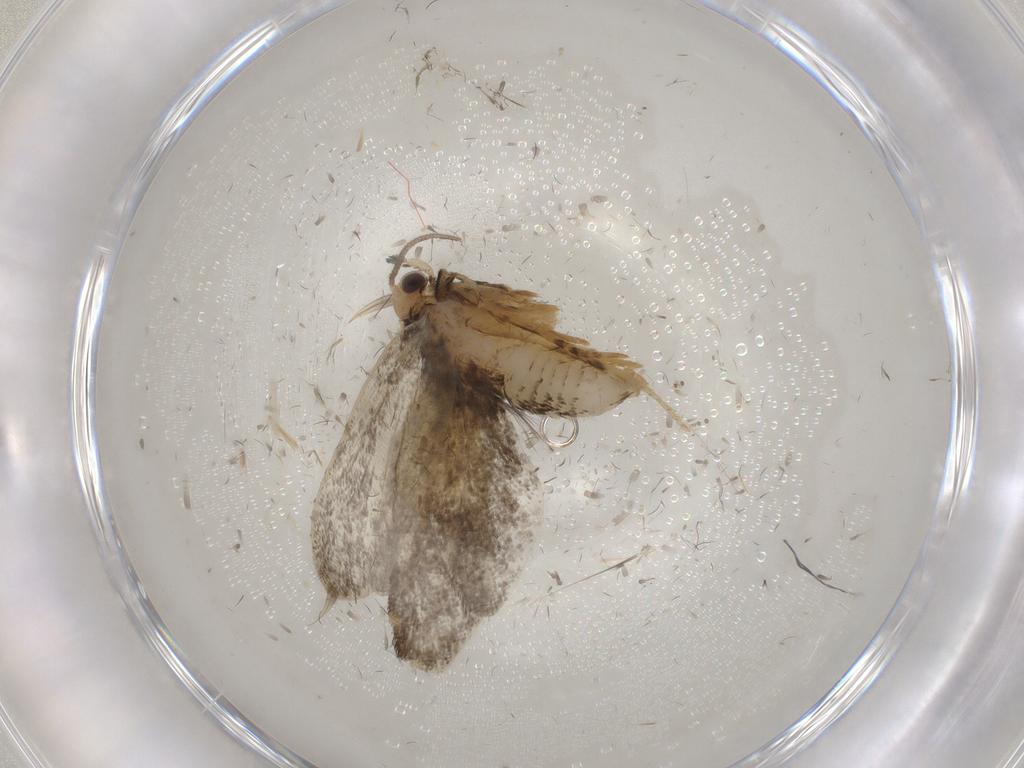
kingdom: Animalia
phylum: Arthropoda
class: Insecta
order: Lepidoptera
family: Psychidae
